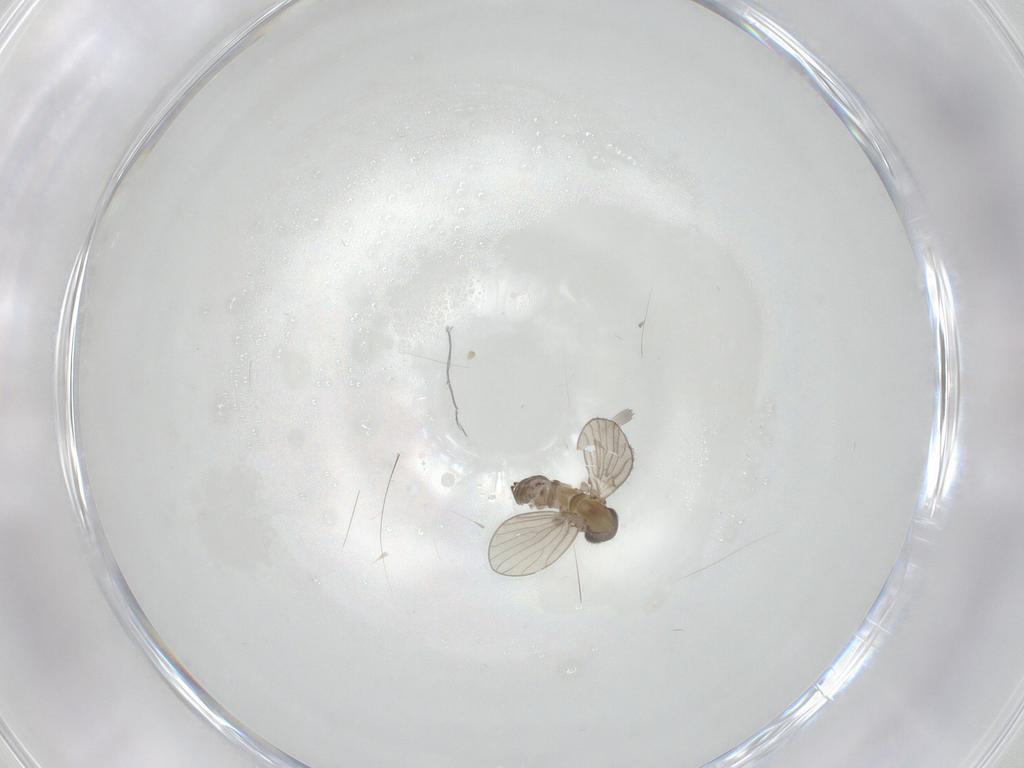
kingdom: Animalia
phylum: Arthropoda
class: Insecta
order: Diptera
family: Psychodidae
